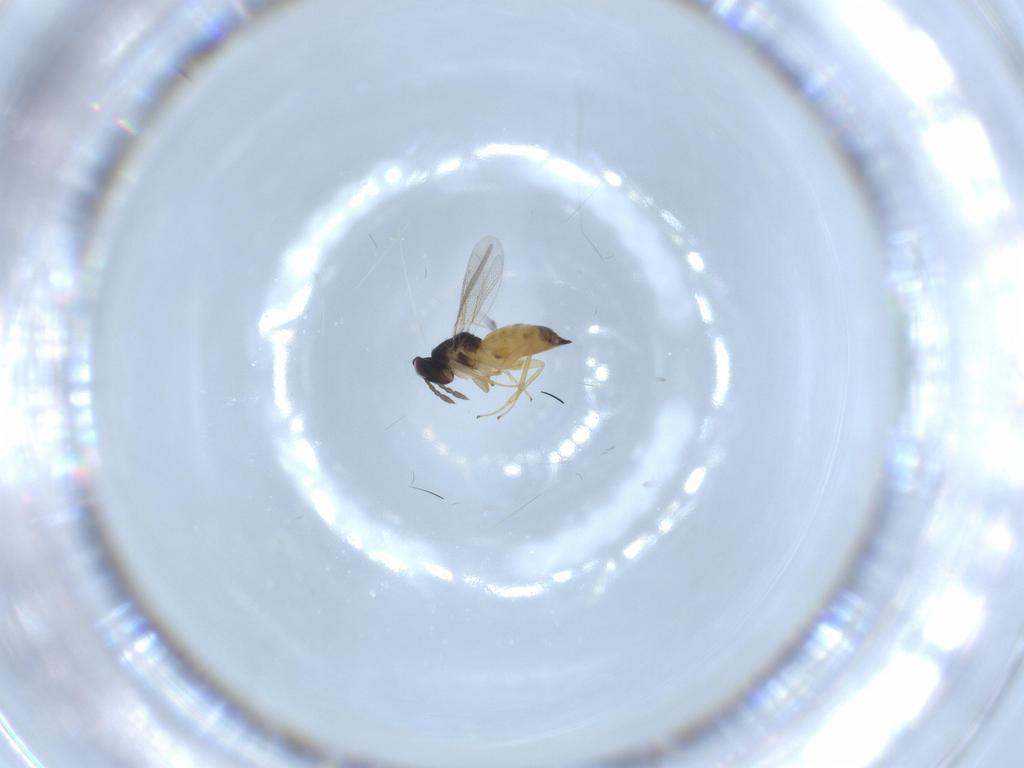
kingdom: Animalia
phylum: Arthropoda
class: Insecta
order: Hymenoptera
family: Eulophidae
